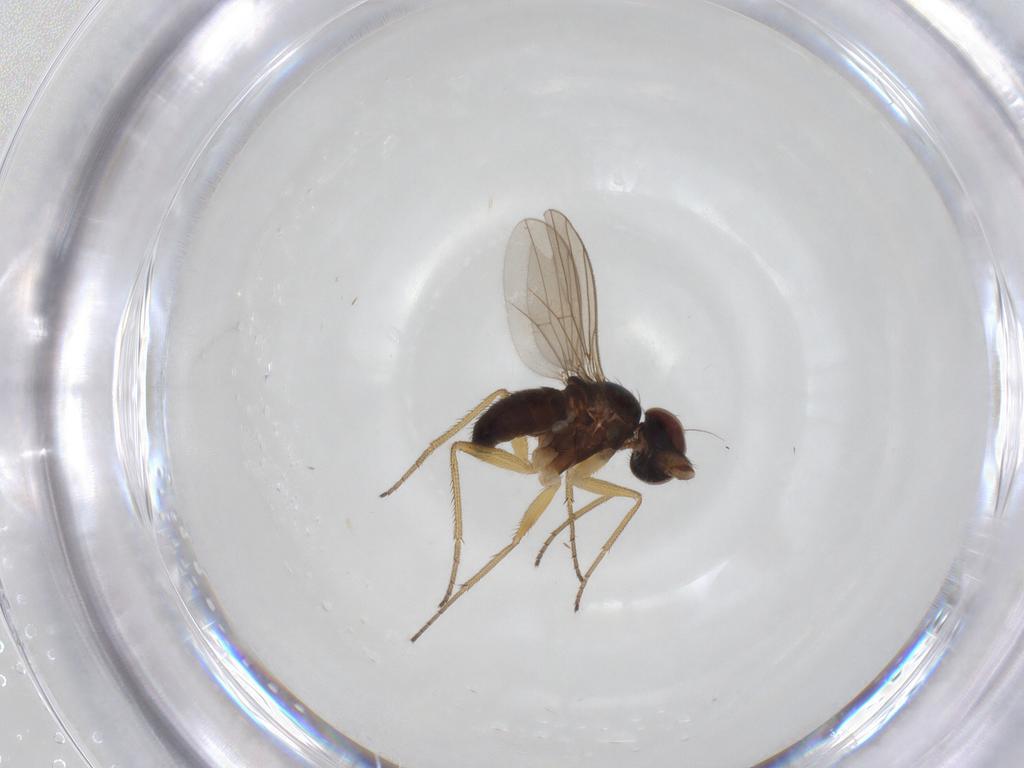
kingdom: Animalia
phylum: Arthropoda
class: Insecta
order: Diptera
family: Dolichopodidae
